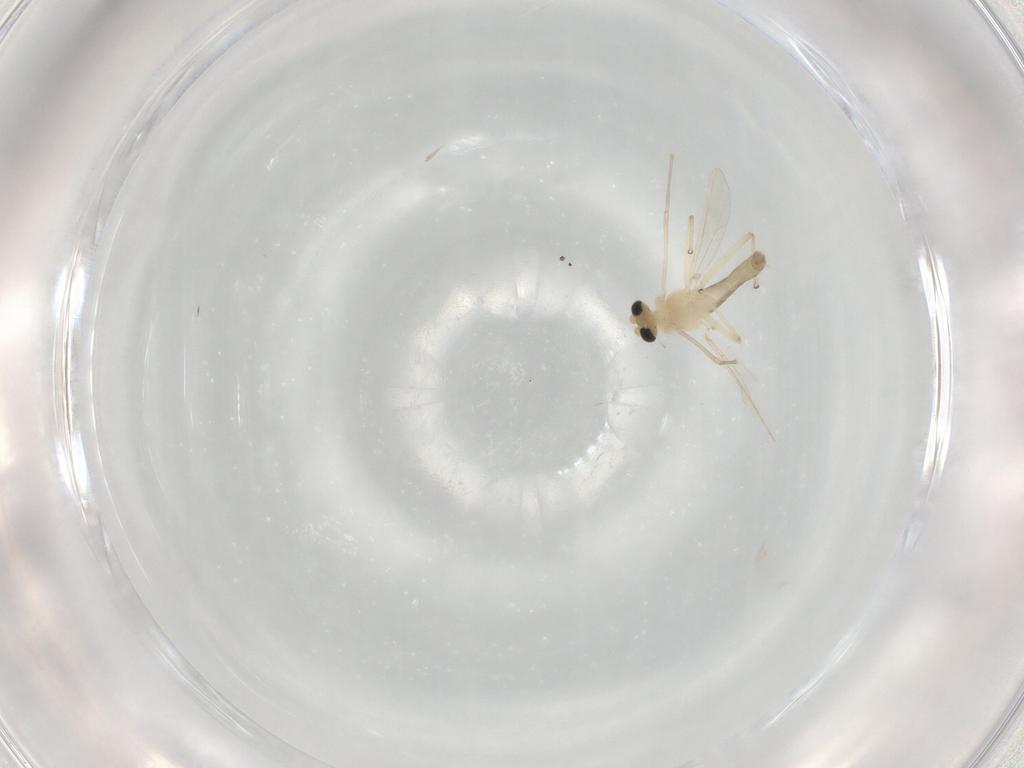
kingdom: Animalia
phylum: Arthropoda
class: Insecta
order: Diptera
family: Chironomidae
